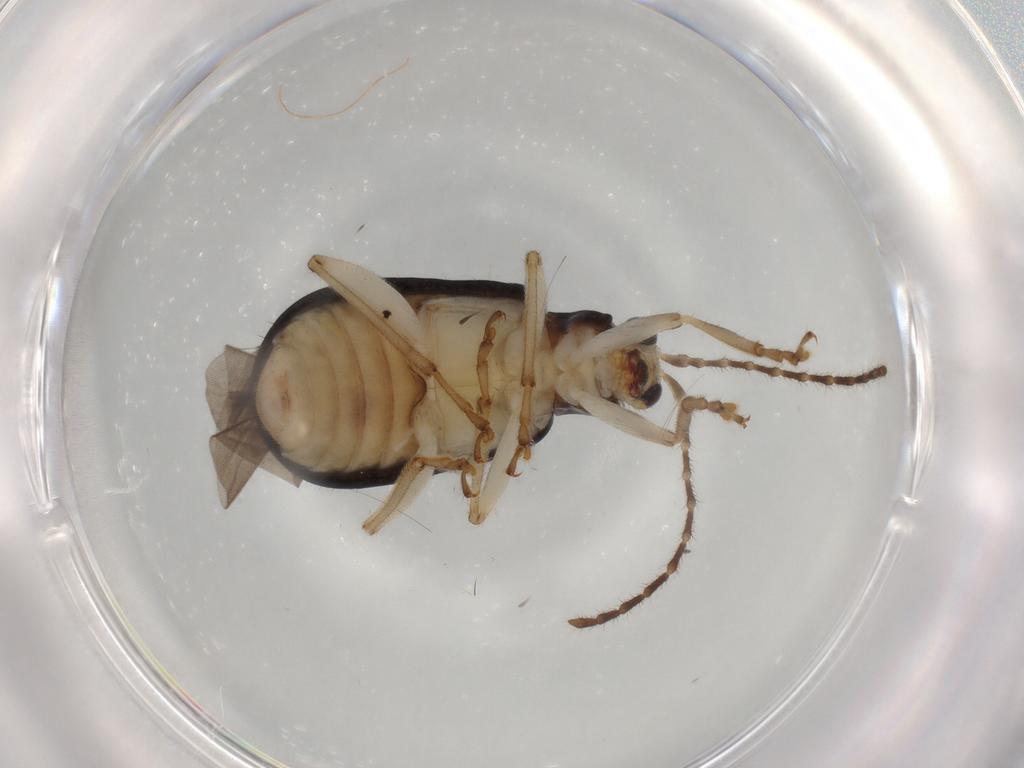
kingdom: Animalia
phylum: Arthropoda
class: Insecta
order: Coleoptera
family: Chrysomelidae
